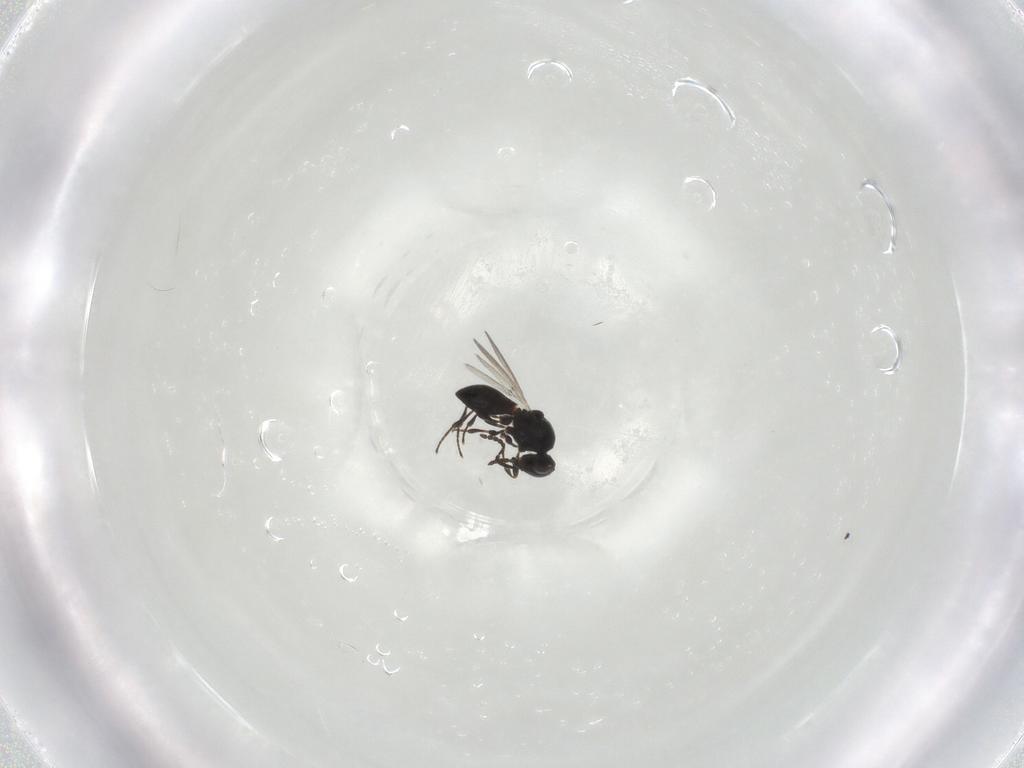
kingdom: Animalia
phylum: Arthropoda
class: Insecta
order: Hymenoptera
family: Platygastridae
